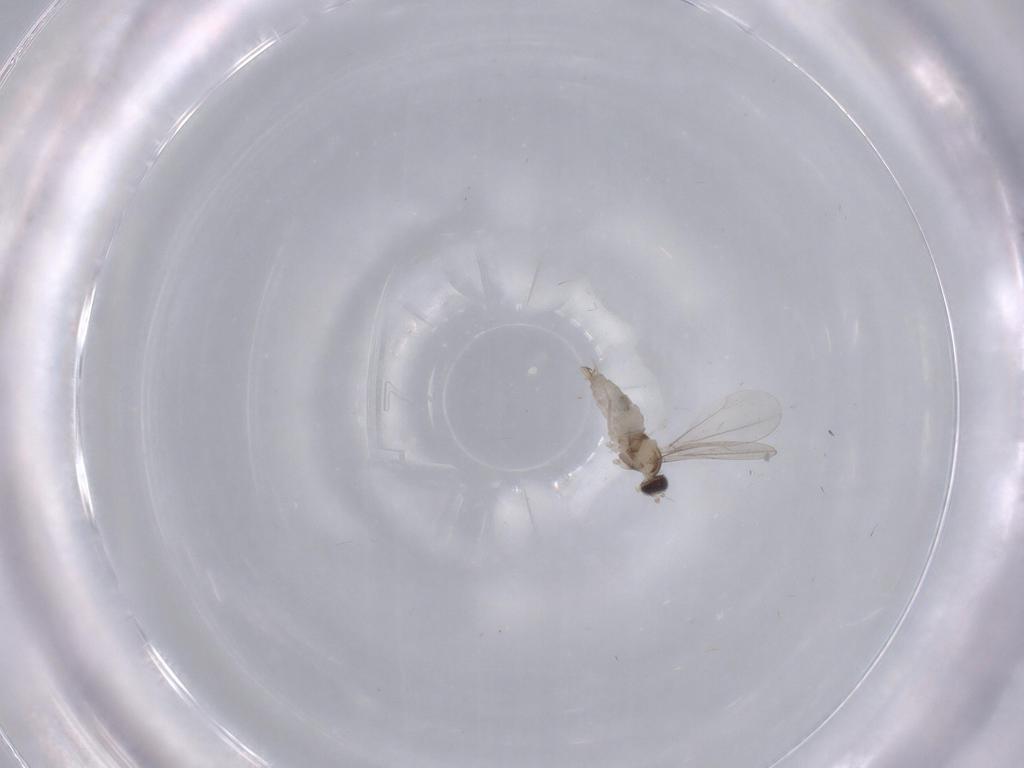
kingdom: Animalia
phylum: Arthropoda
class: Insecta
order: Diptera
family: Cecidomyiidae
